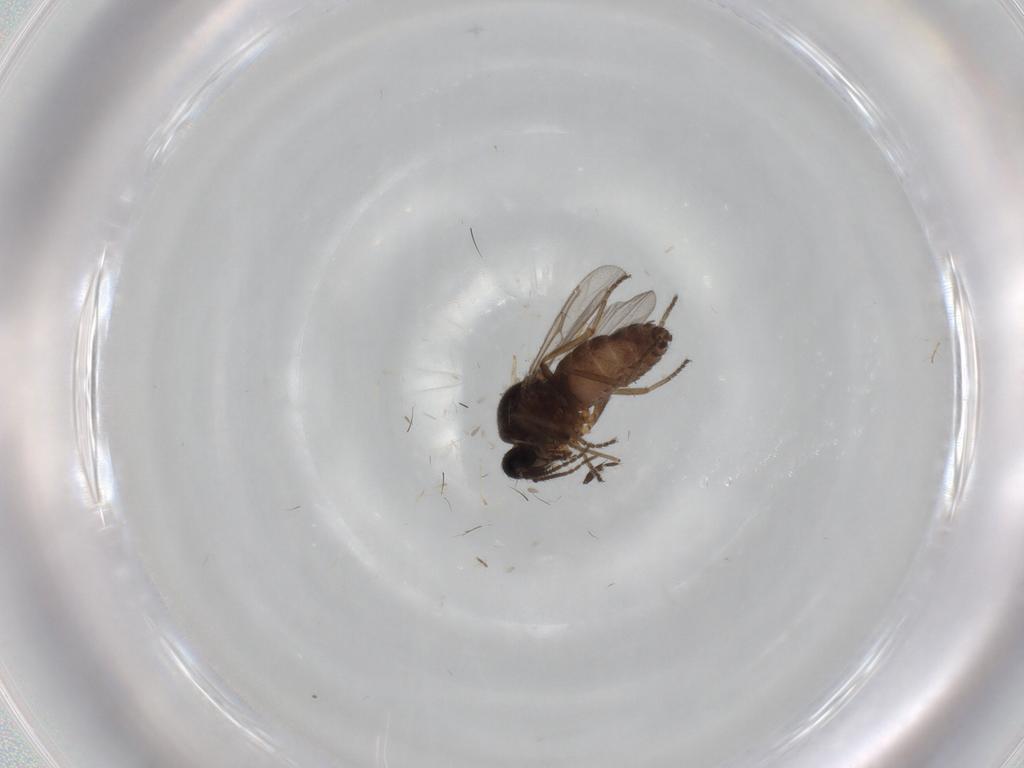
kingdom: Animalia
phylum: Arthropoda
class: Insecta
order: Diptera
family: Ceratopogonidae
